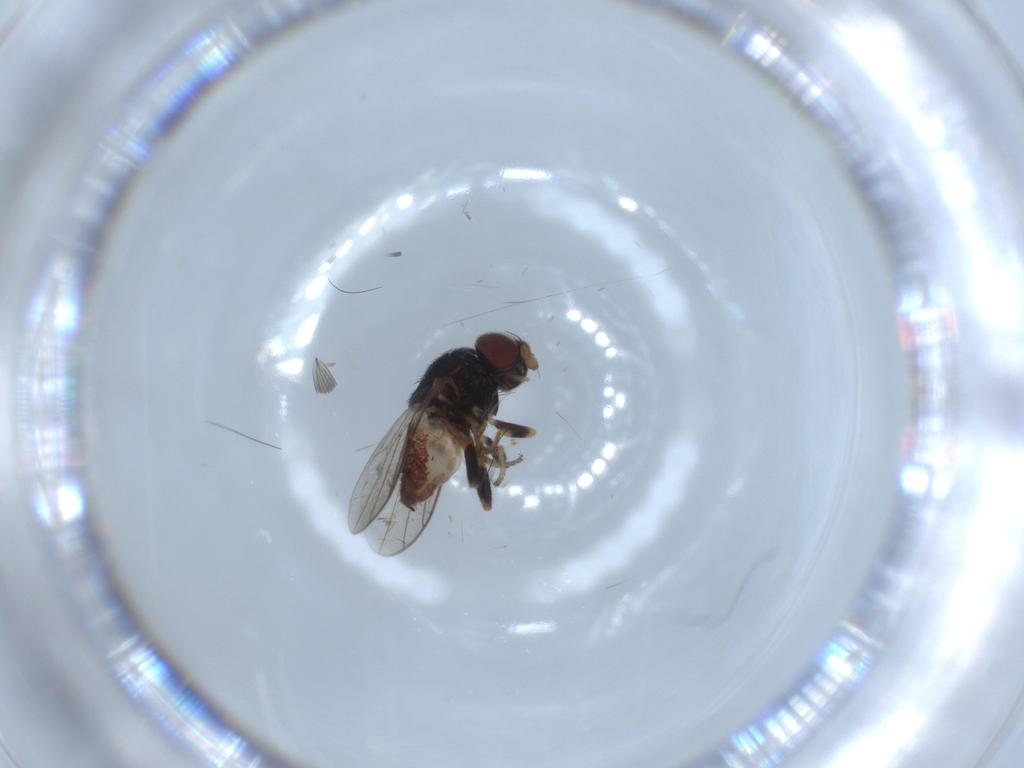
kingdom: Animalia
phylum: Arthropoda
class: Insecta
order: Diptera
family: Chloropidae
